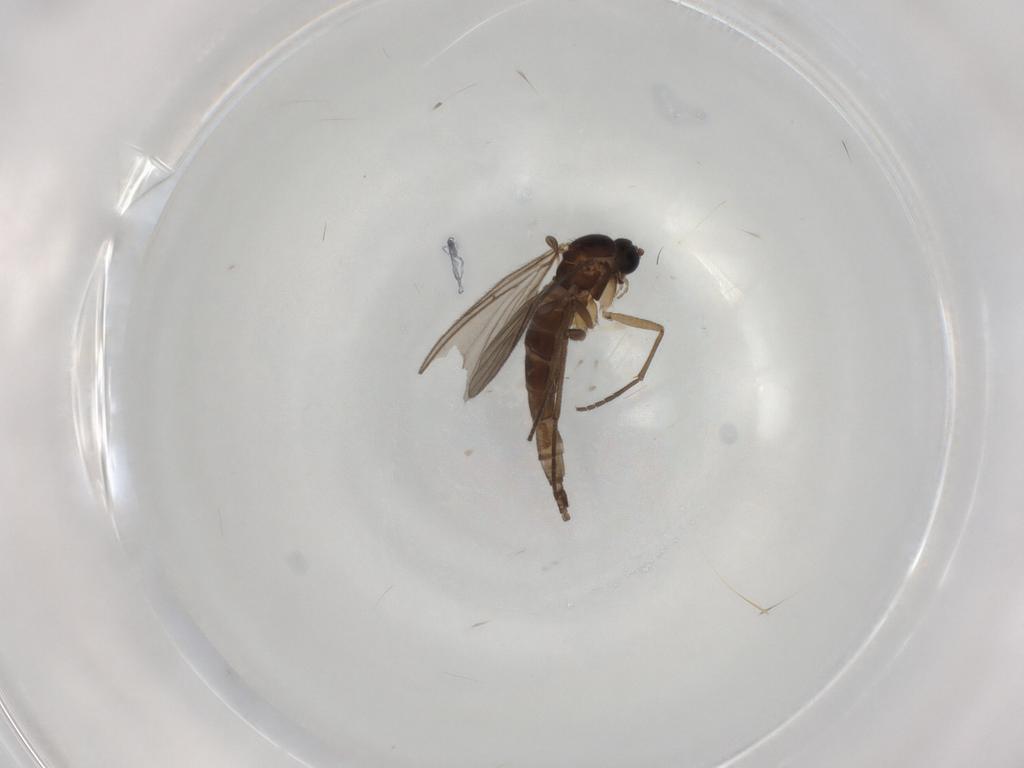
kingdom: Animalia
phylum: Arthropoda
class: Insecta
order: Diptera
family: Sciaridae
